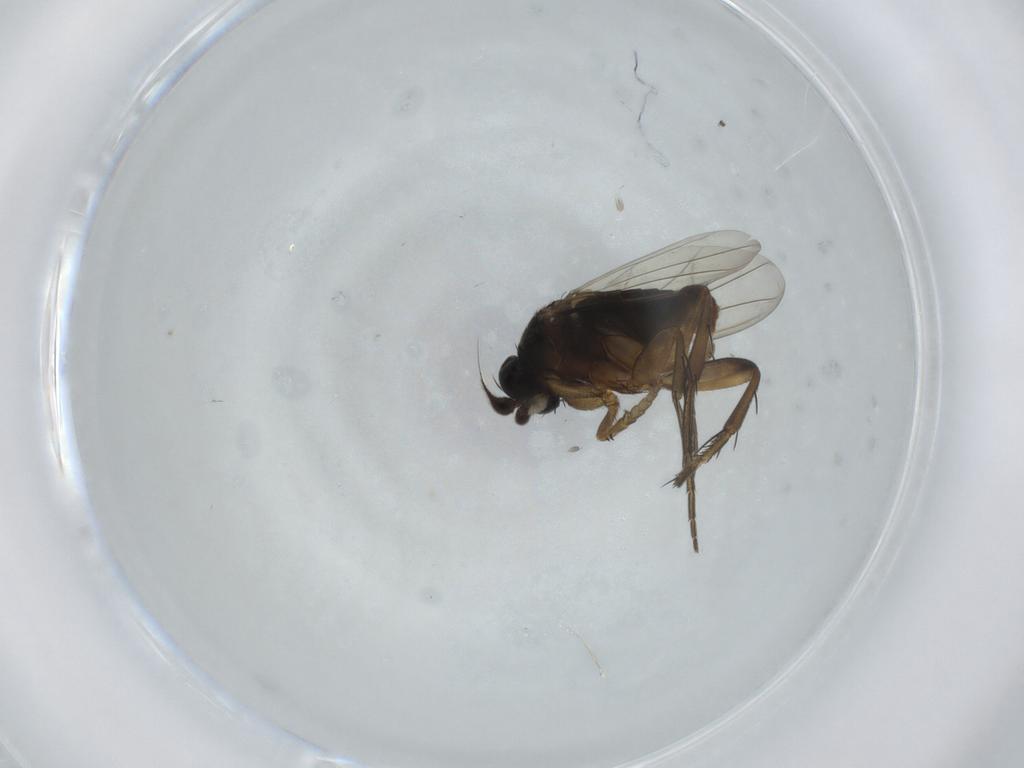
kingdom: Animalia
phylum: Arthropoda
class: Insecta
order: Diptera
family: Phoridae
